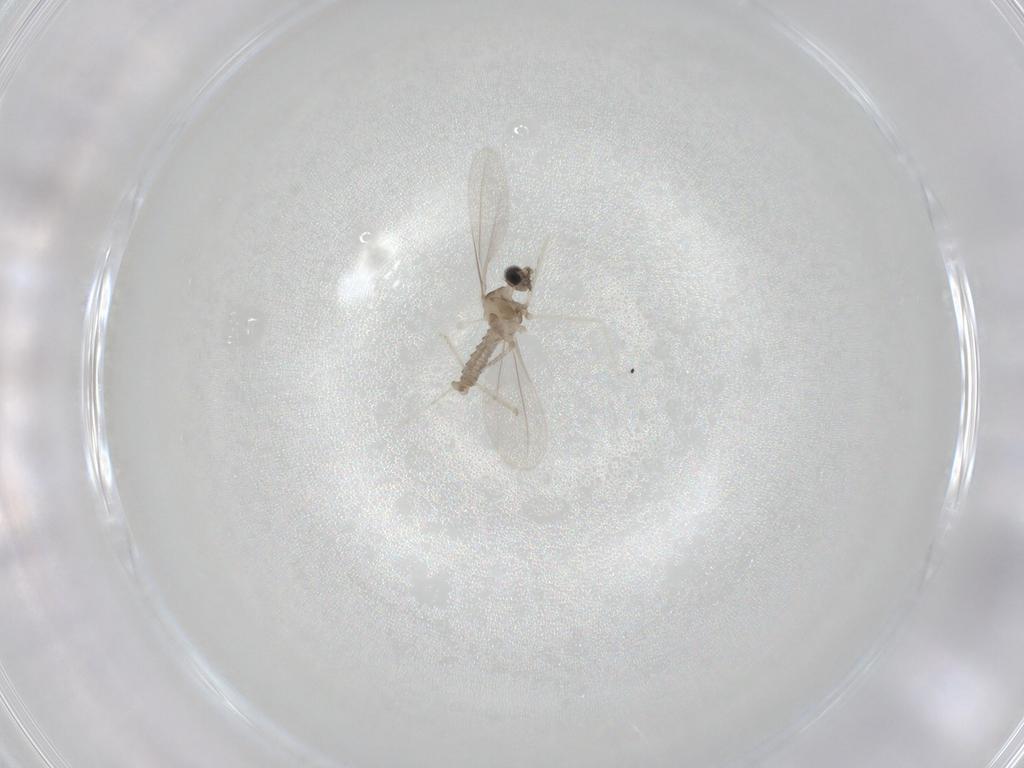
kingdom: Animalia
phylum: Arthropoda
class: Insecta
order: Diptera
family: Cecidomyiidae
